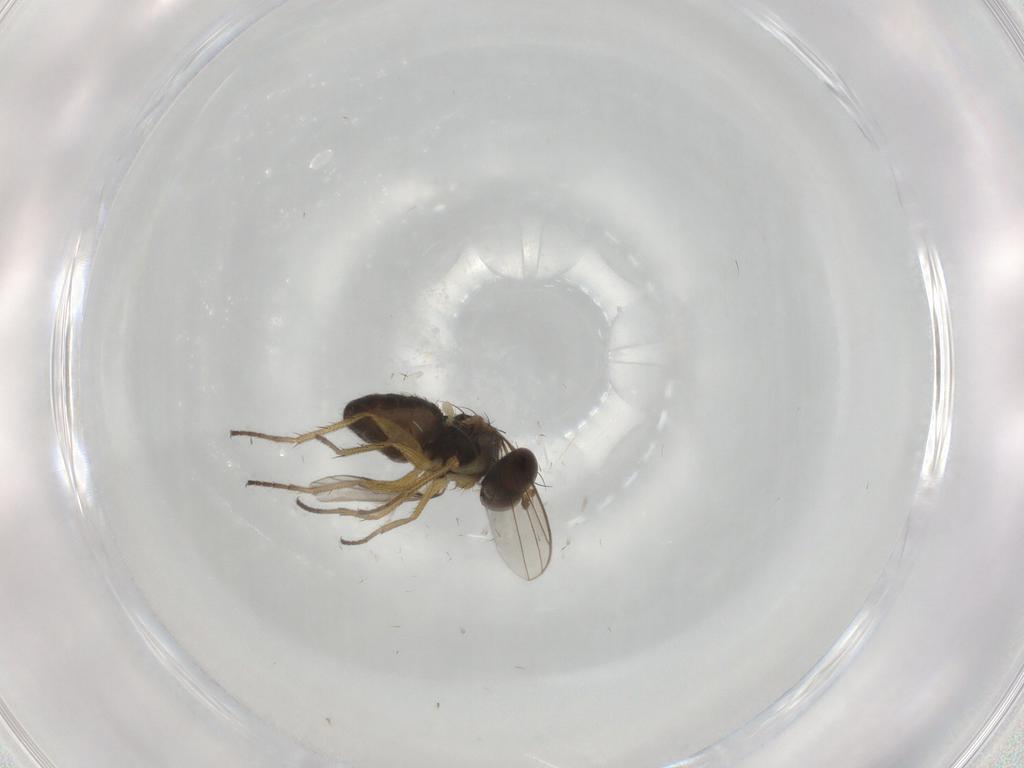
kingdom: Animalia
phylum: Arthropoda
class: Insecta
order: Diptera
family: Dolichopodidae
